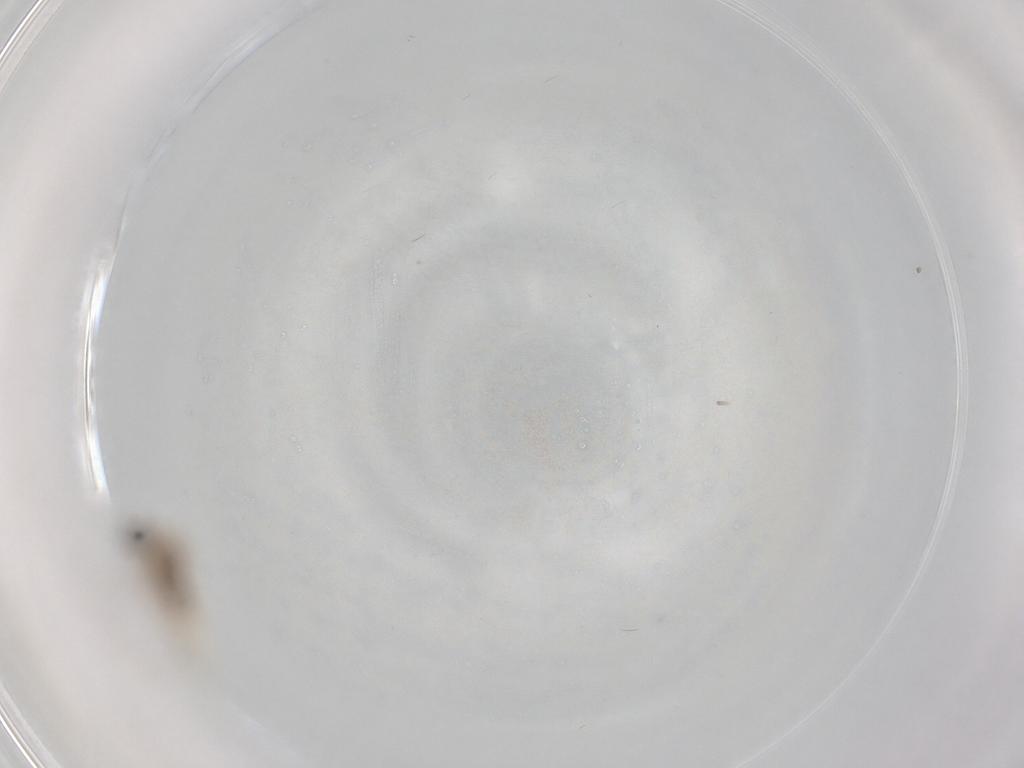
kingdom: Animalia
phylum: Arthropoda
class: Insecta
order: Diptera
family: Chironomidae
